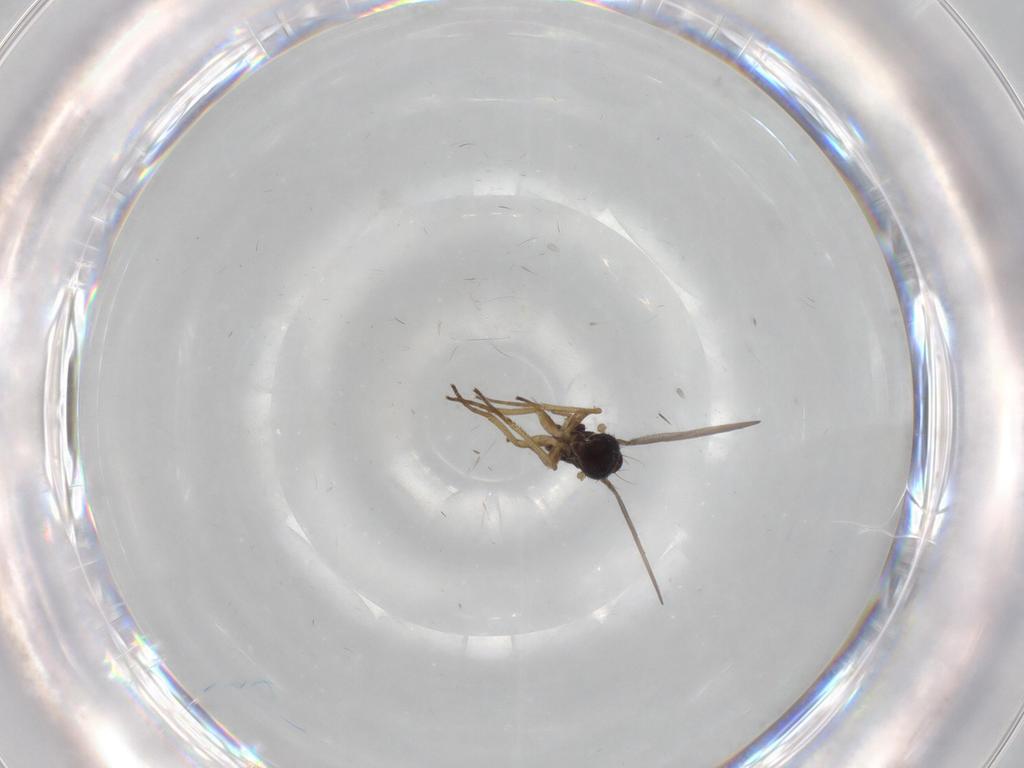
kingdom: Animalia
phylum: Arthropoda
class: Insecta
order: Diptera
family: Dolichopodidae
